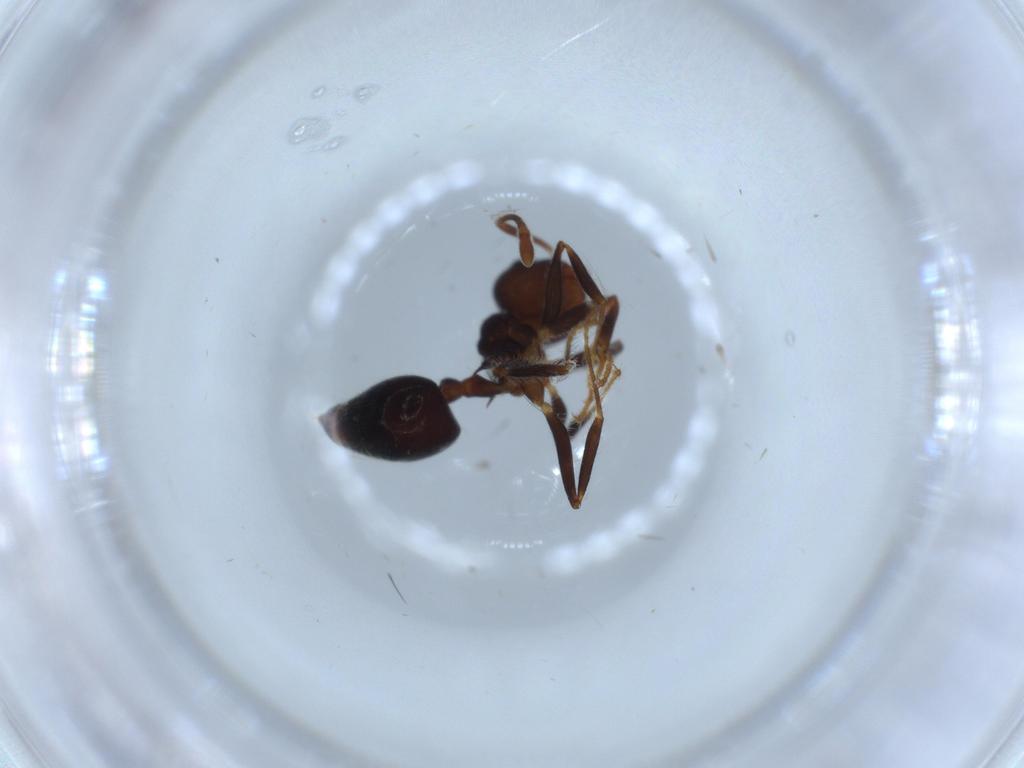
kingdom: Animalia
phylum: Arthropoda
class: Insecta
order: Hymenoptera
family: Formicidae
